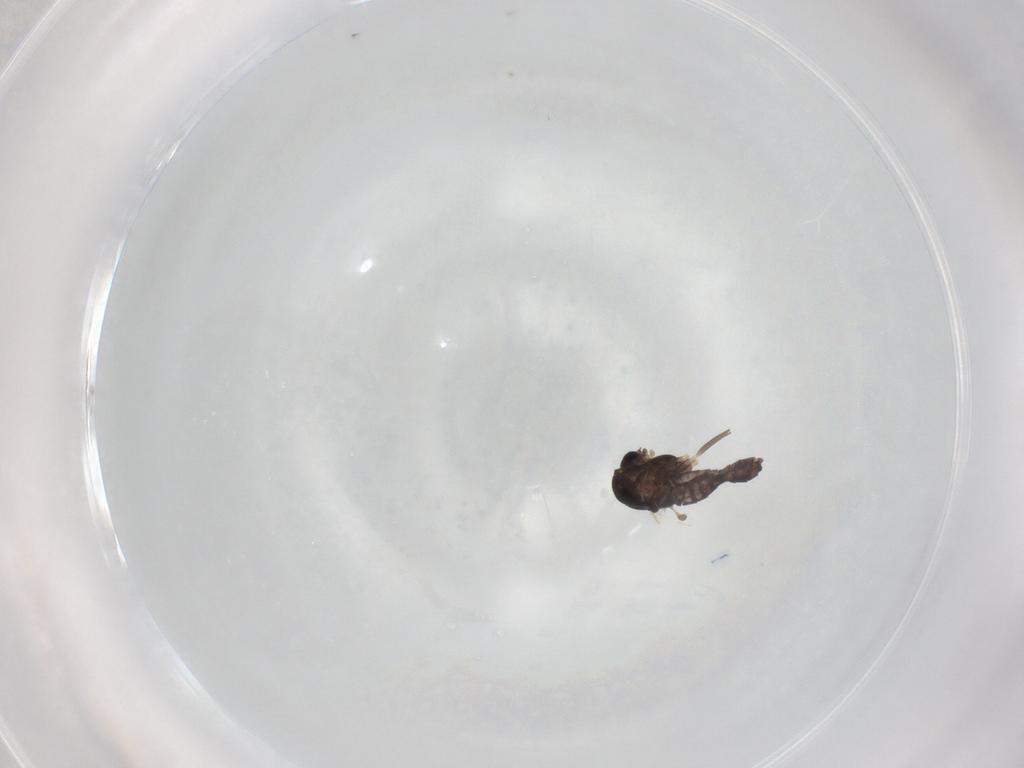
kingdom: Animalia
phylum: Arthropoda
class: Insecta
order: Diptera
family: Chironomidae
